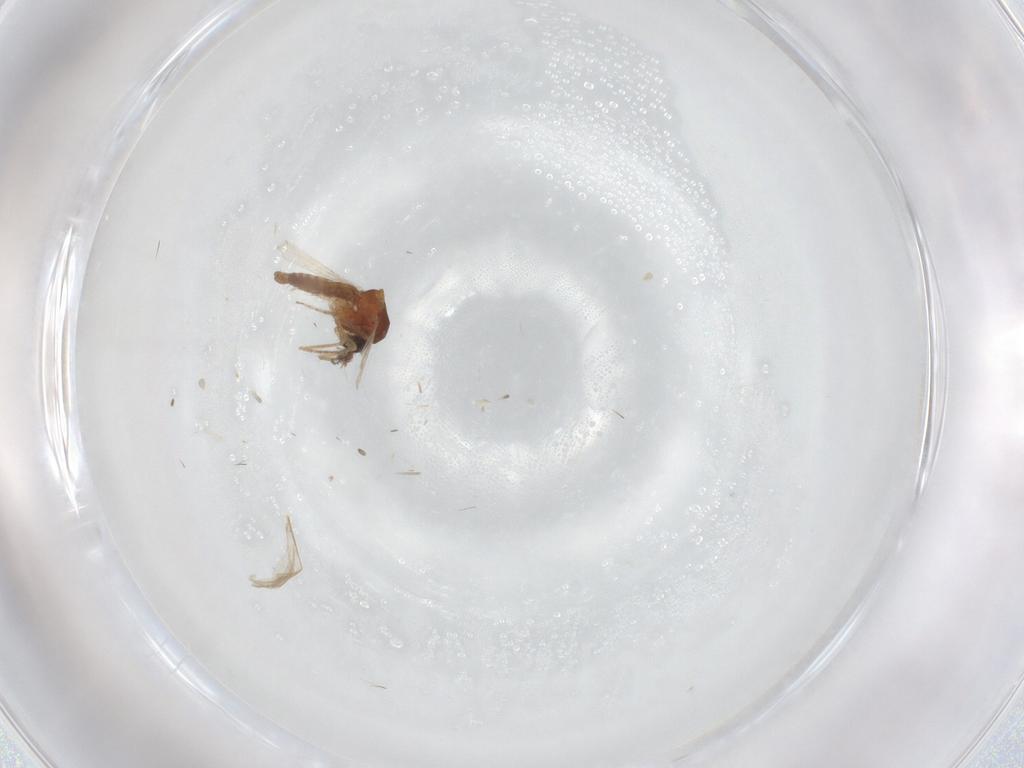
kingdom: Animalia
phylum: Arthropoda
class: Insecta
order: Diptera
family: Ceratopogonidae
